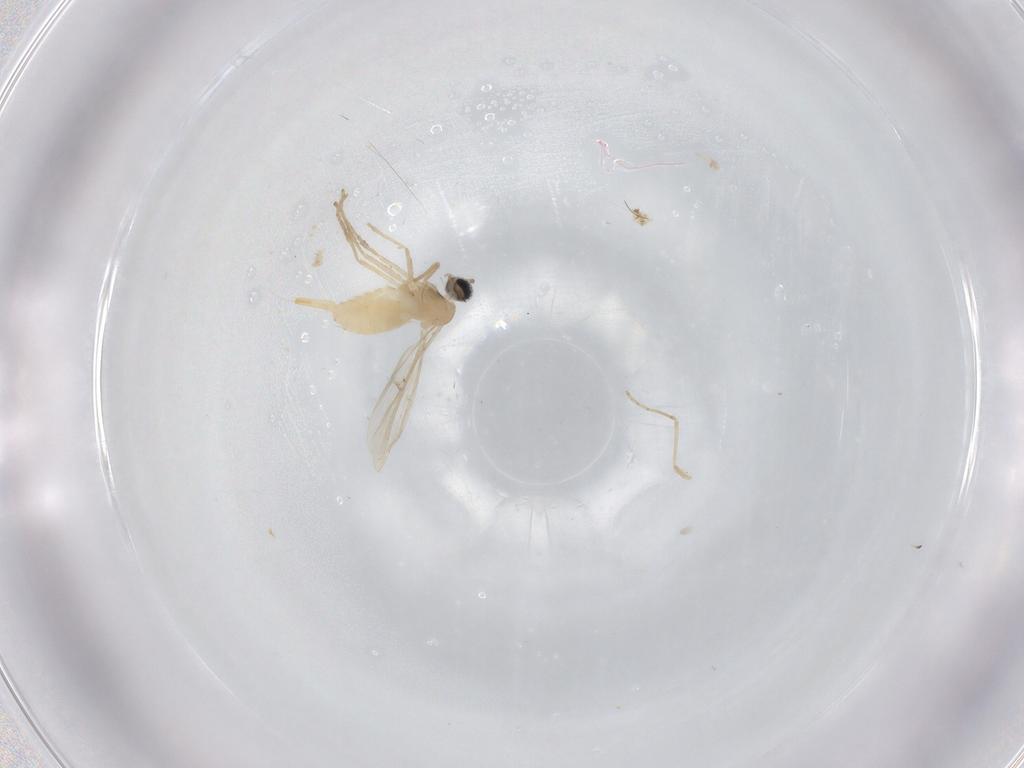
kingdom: Animalia
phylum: Arthropoda
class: Insecta
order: Diptera
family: Cecidomyiidae
